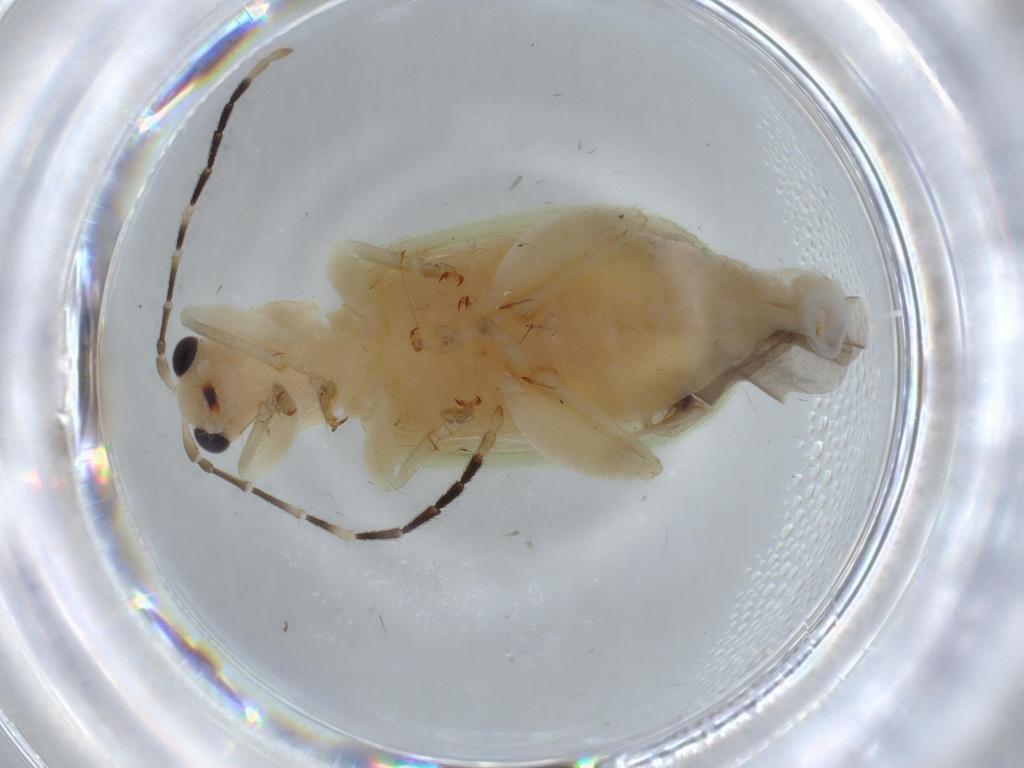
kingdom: Animalia
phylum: Arthropoda
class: Insecta
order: Coleoptera
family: Chrysomelidae
